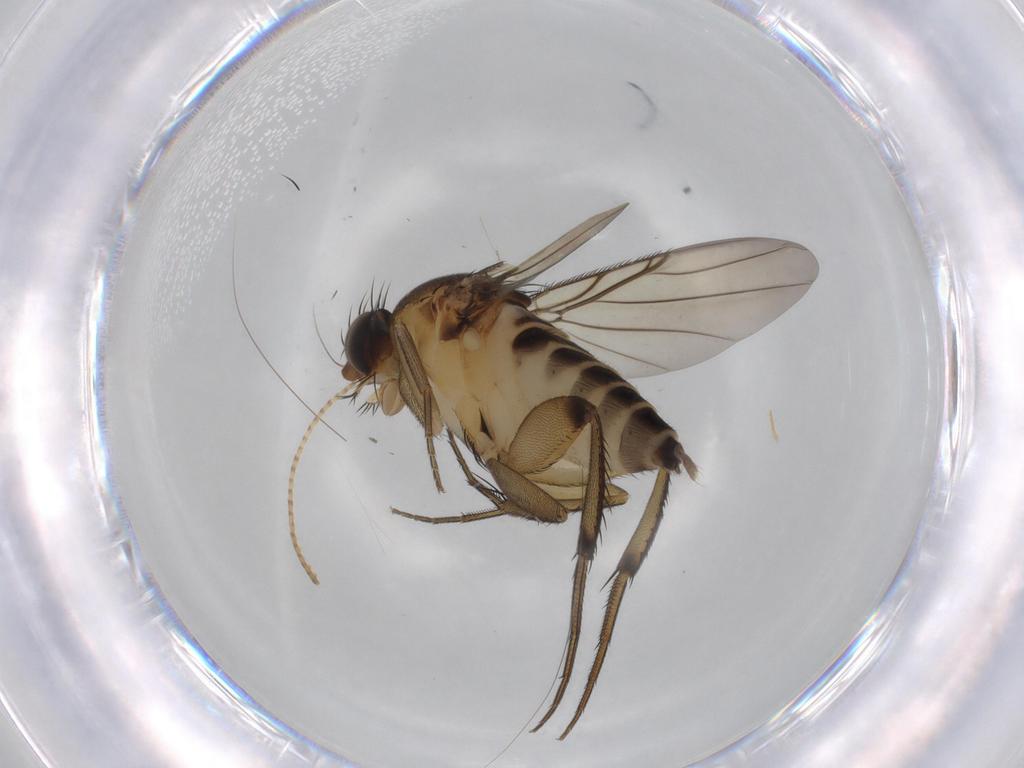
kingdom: Animalia
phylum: Arthropoda
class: Insecta
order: Diptera
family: Phoridae
